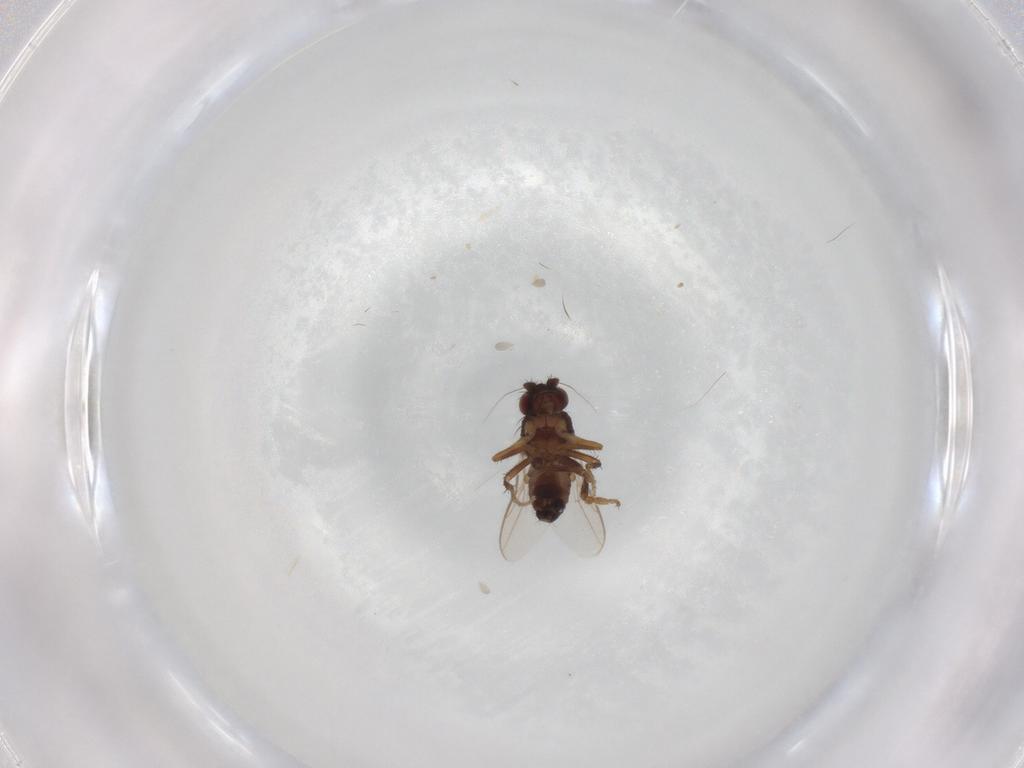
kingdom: Animalia
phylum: Arthropoda
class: Insecta
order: Diptera
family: Sphaeroceridae
